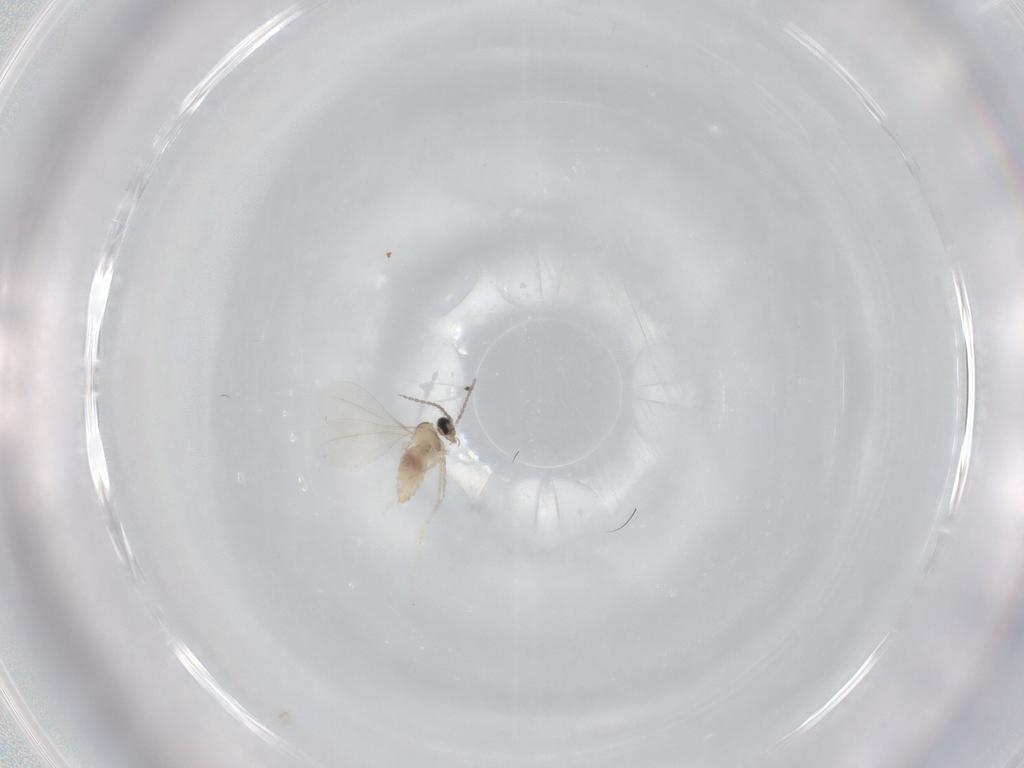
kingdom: Animalia
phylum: Arthropoda
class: Insecta
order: Diptera
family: Cecidomyiidae
